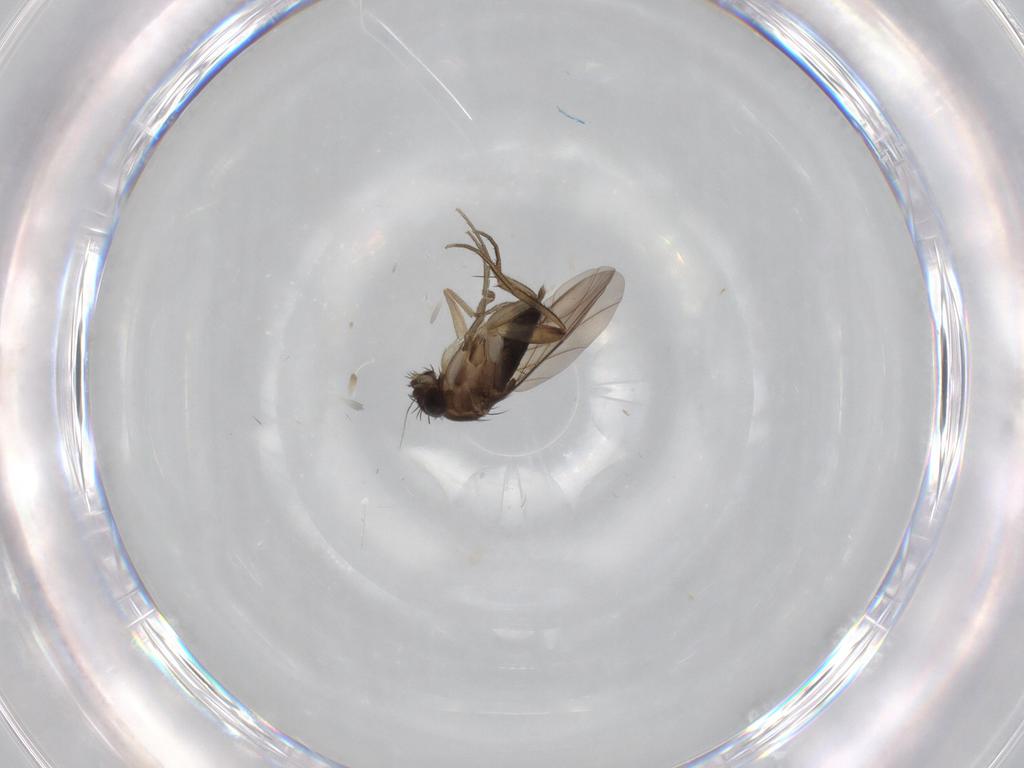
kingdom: Animalia
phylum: Arthropoda
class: Insecta
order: Diptera
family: Phoridae
